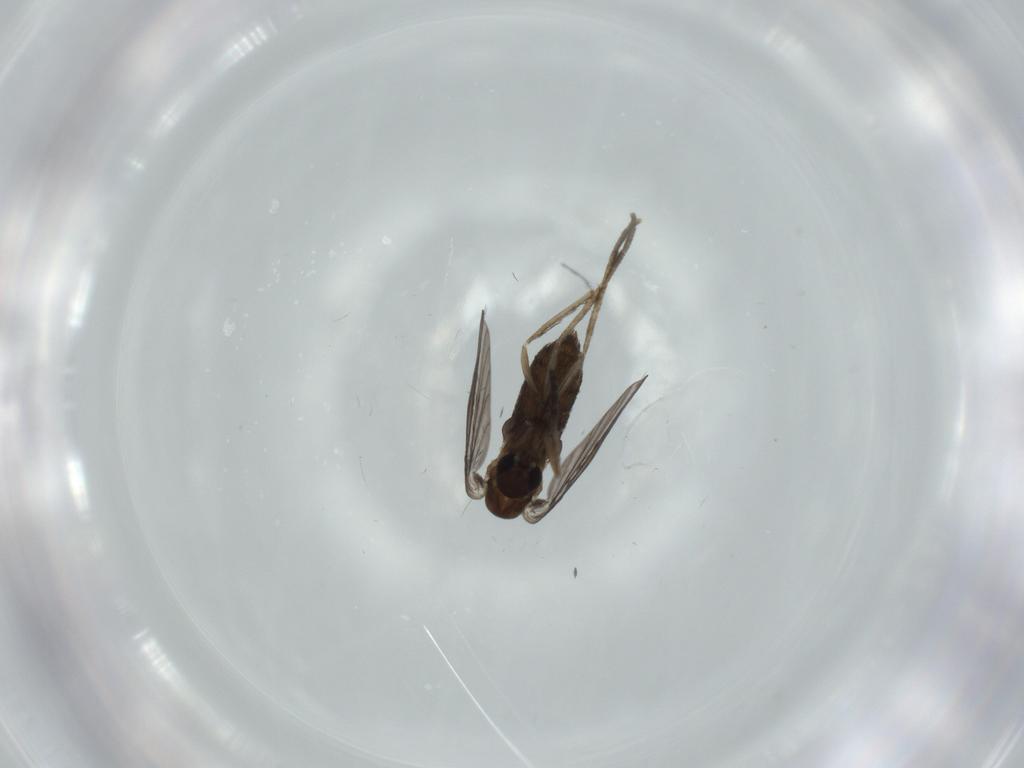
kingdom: Animalia
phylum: Arthropoda
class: Insecta
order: Diptera
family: Psychodidae
